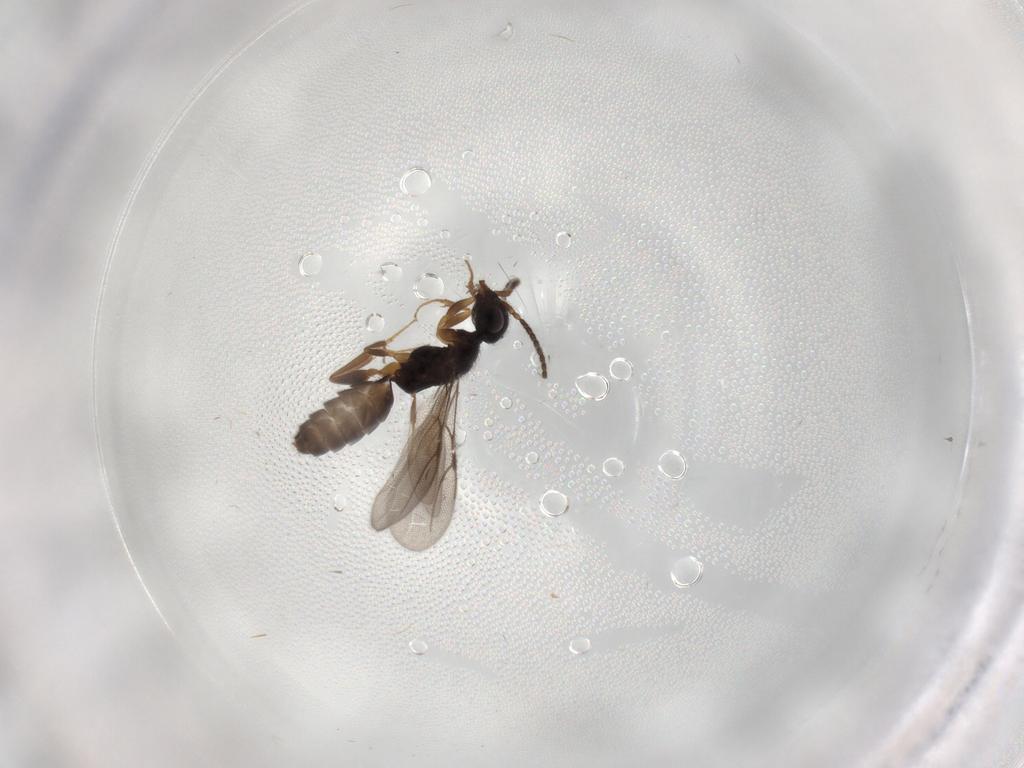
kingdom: Animalia
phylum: Arthropoda
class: Insecta
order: Hymenoptera
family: Bethylidae
